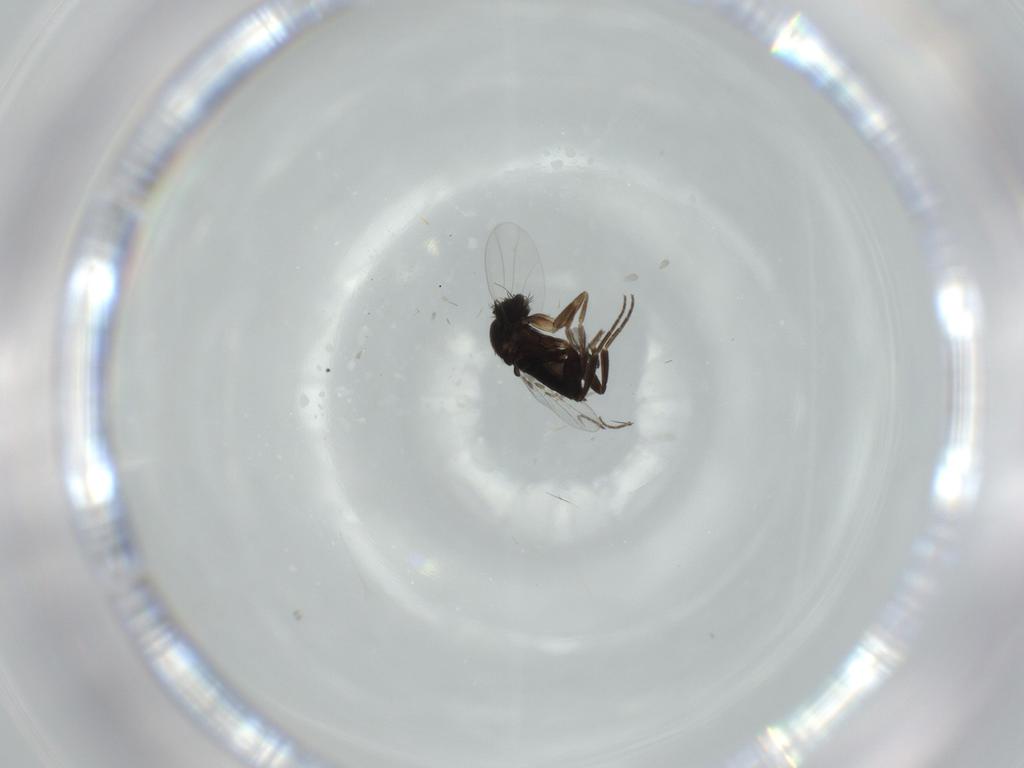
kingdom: Animalia
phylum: Arthropoda
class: Insecta
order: Diptera
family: Phoridae
